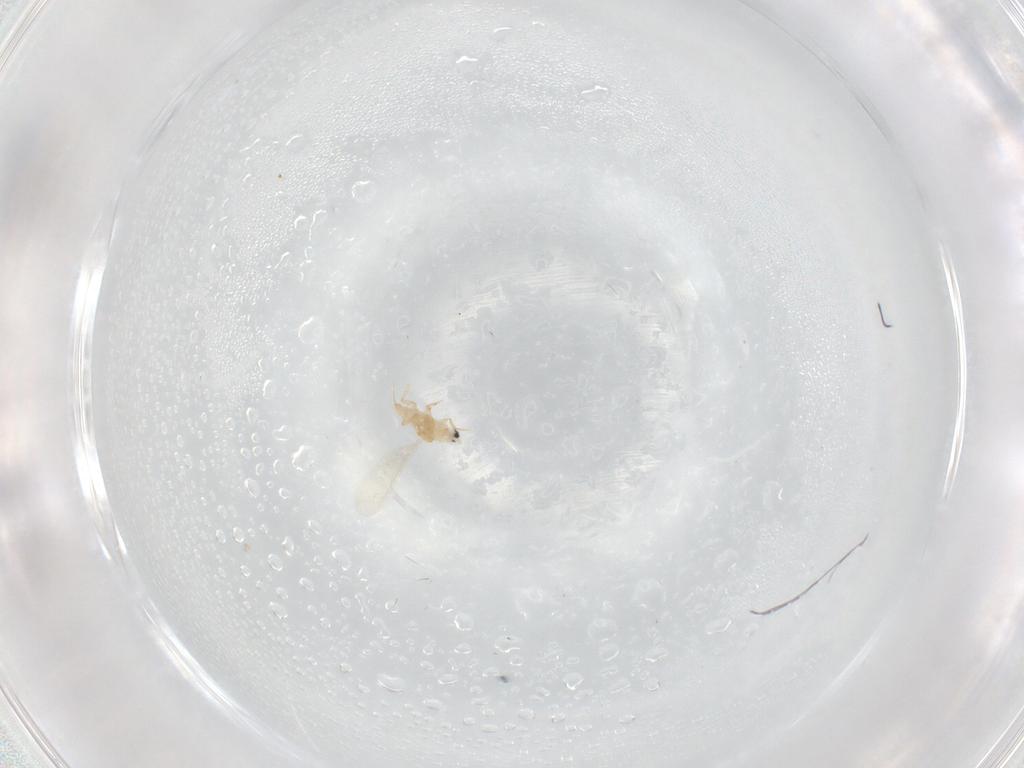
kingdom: Animalia
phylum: Arthropoda
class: Insecta
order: Hemiptera
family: Diaspididae
